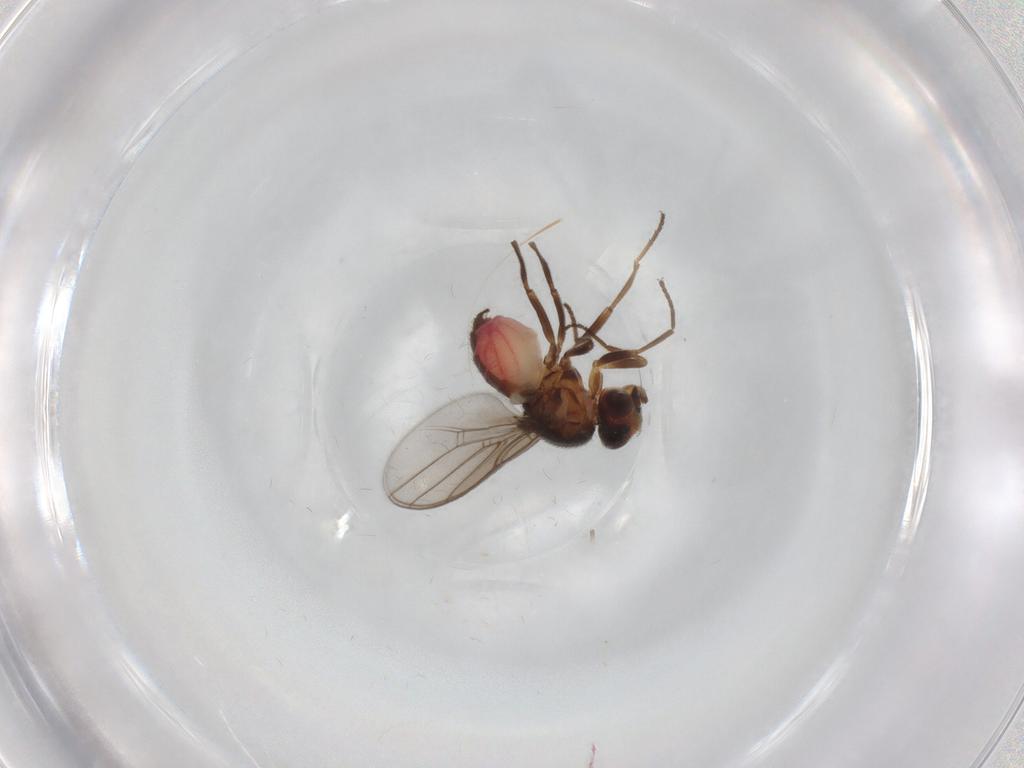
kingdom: Animalia
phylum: Arthropoda
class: Insecta
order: Diptera
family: Chloropidae
